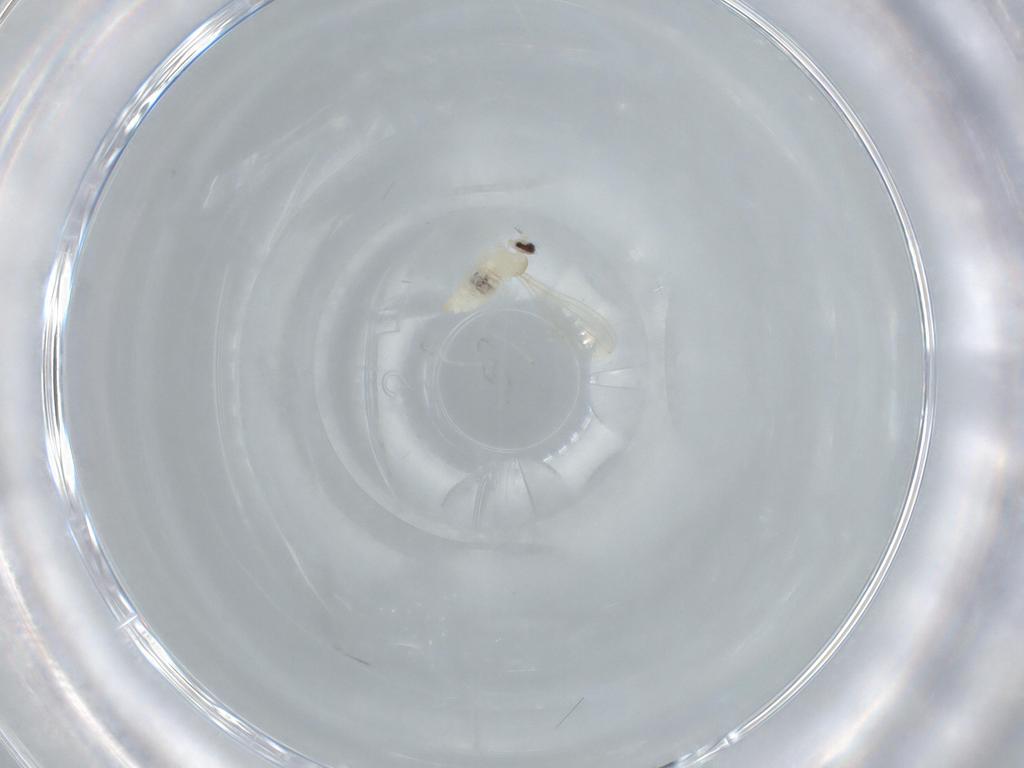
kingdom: Animalia
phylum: Arthropoda
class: Insecta
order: Diptera
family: Cecidomyiidae
